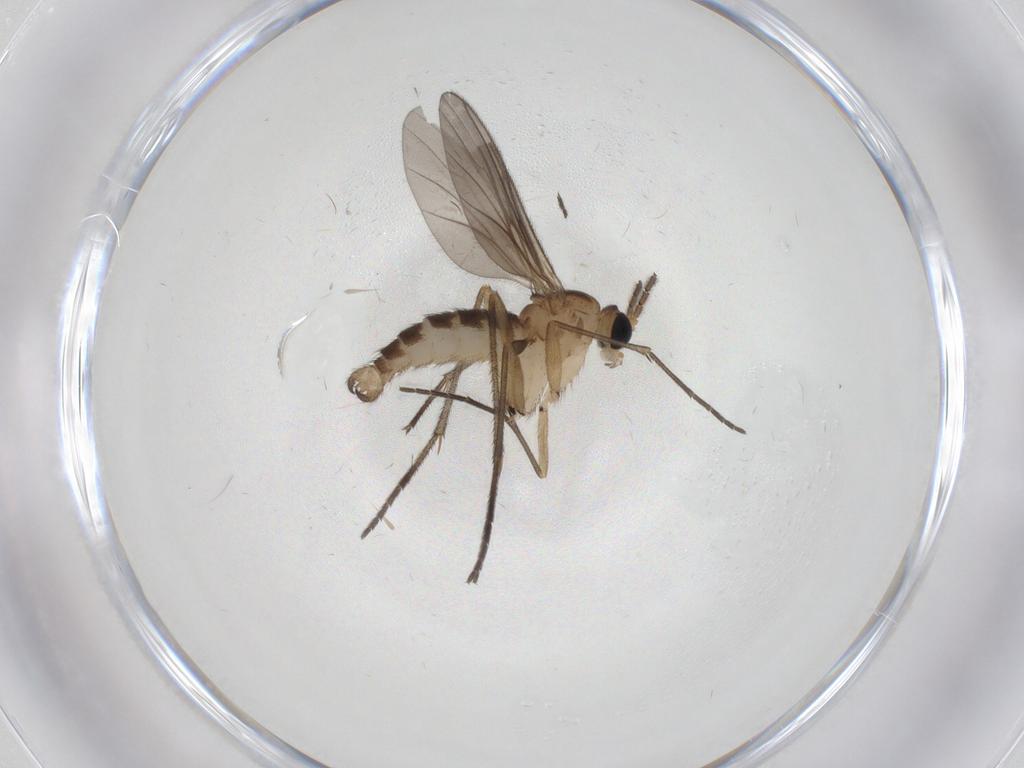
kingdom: Animalia
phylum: Arthropoda
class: Insecta
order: Diptera
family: Sciaridae
